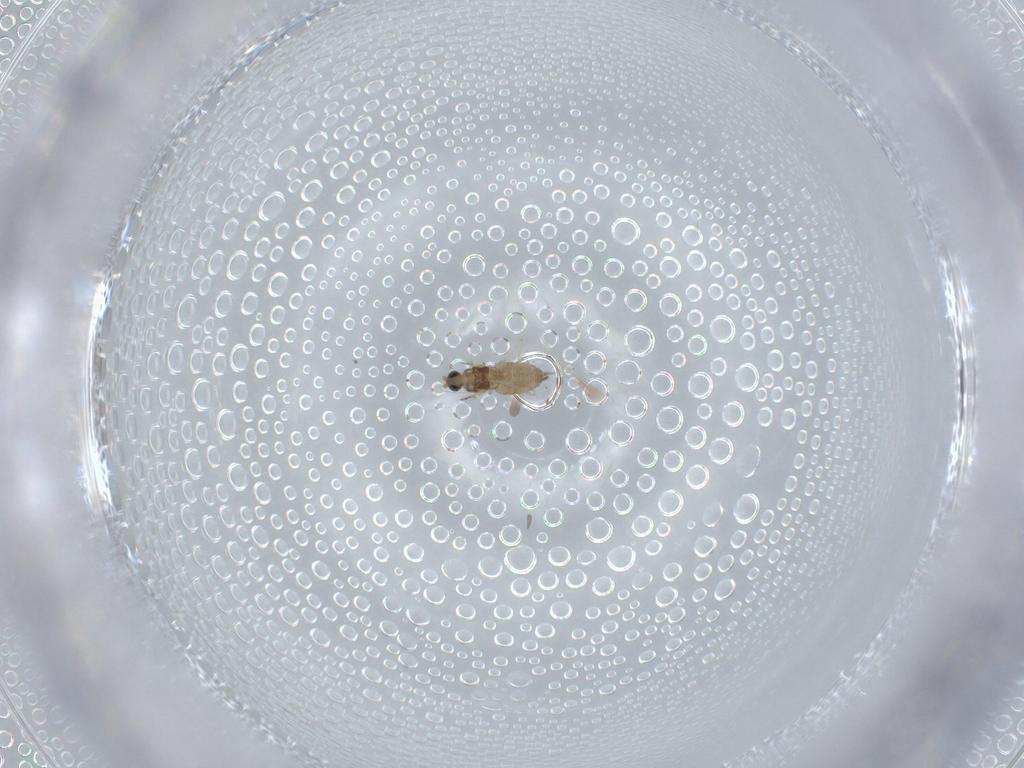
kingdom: Animalia
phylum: Arthropoda
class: Insecta
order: Diptera
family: Cecidomyiidae
